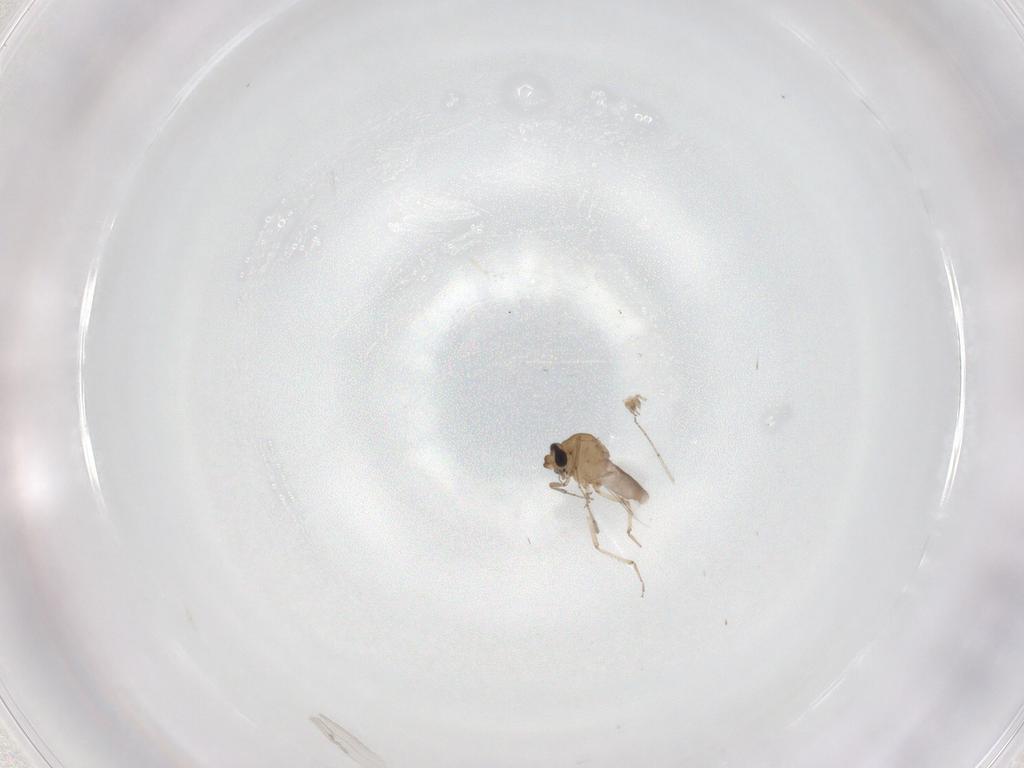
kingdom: Animalia
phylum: Arthropoda
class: Insecta
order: Diptera
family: Ceratopogonidae
